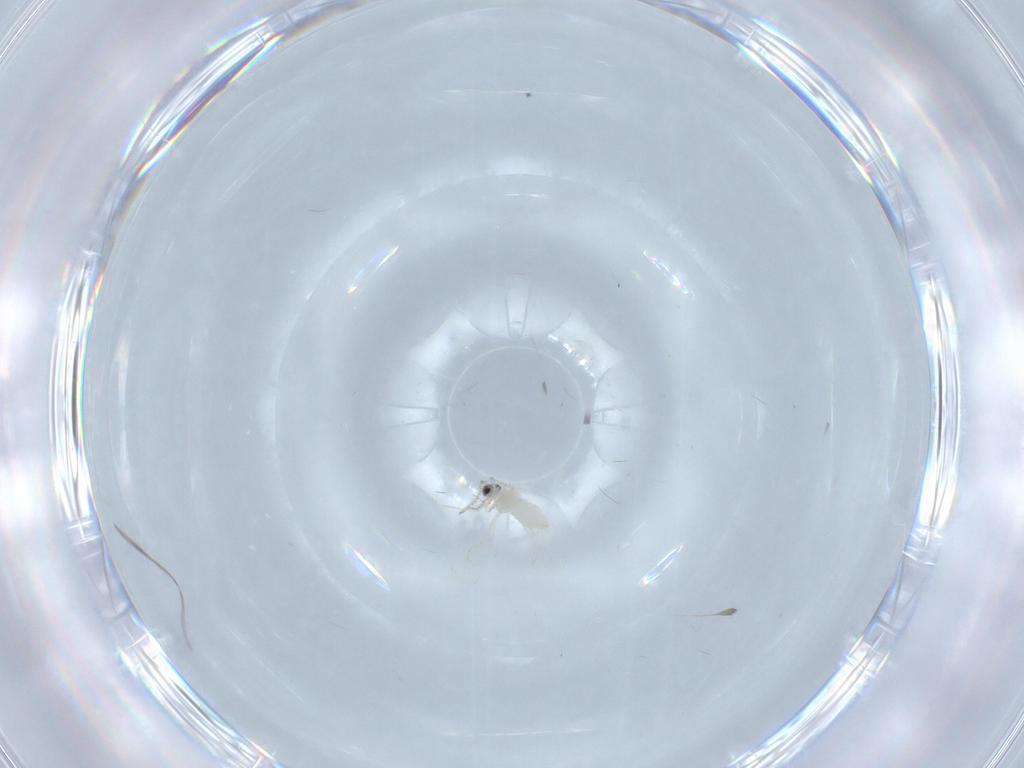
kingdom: Animalia
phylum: Arthropoda
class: Insecta
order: Diptera
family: Cecidomyiidae
